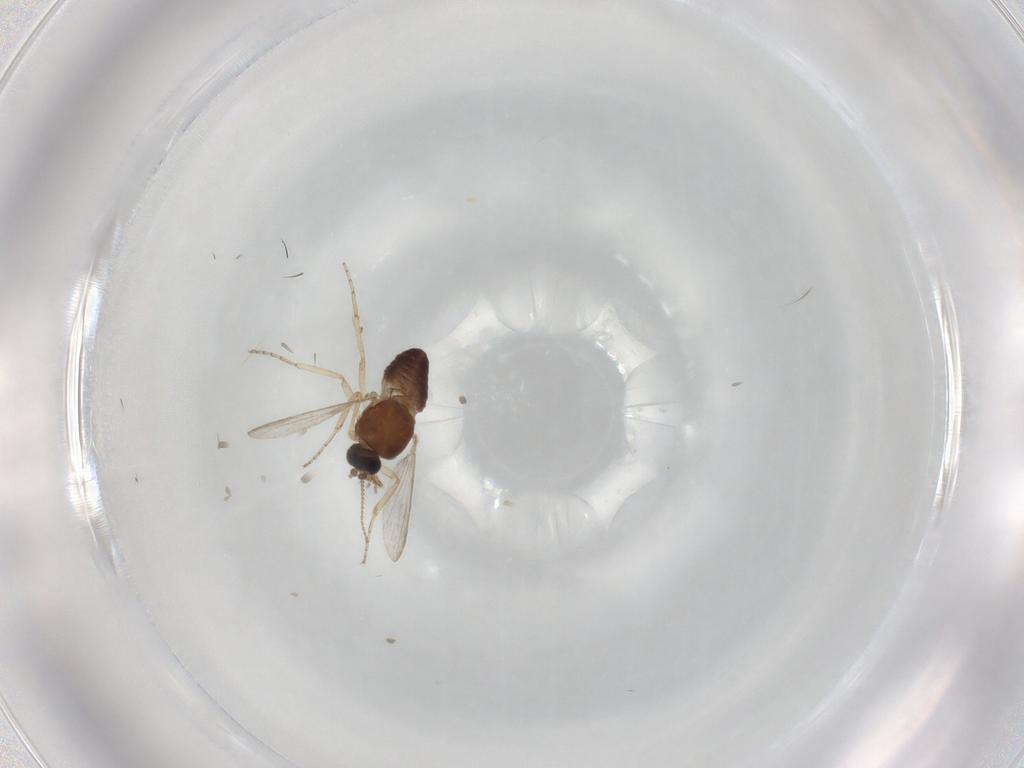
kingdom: Animalia
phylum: Arthropoda
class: Insecta
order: Diptera
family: Ceratopogonidae
